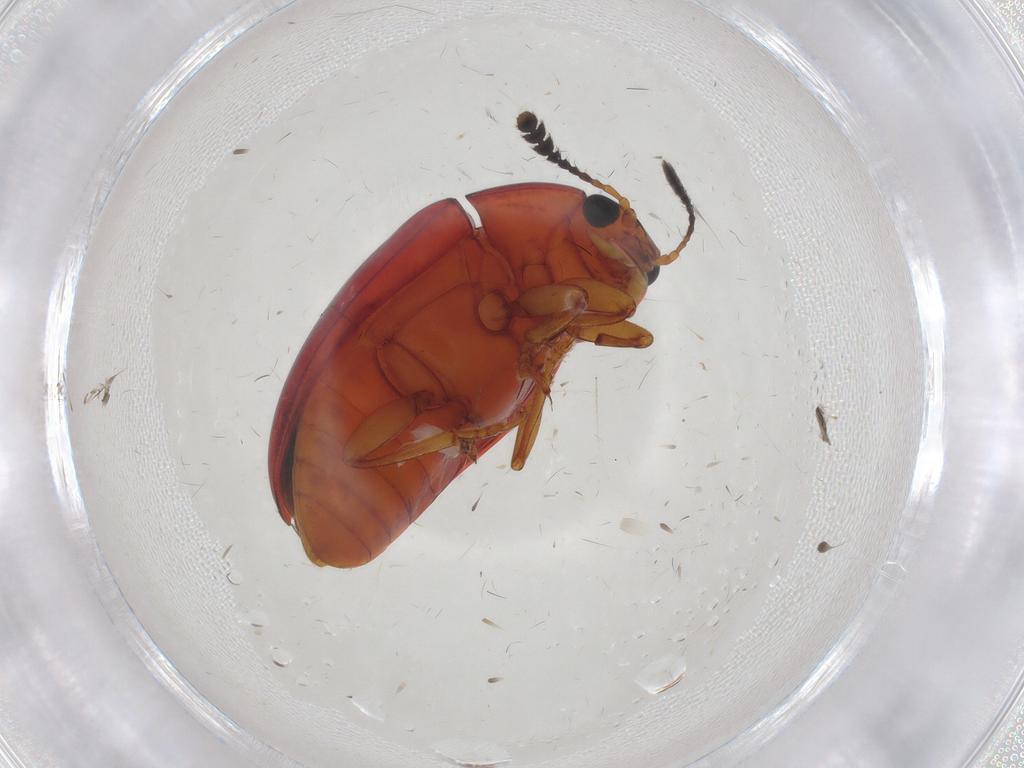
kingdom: Animalia
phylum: Arthropoda
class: Insecta
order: Coleoptera
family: Erotylidae
